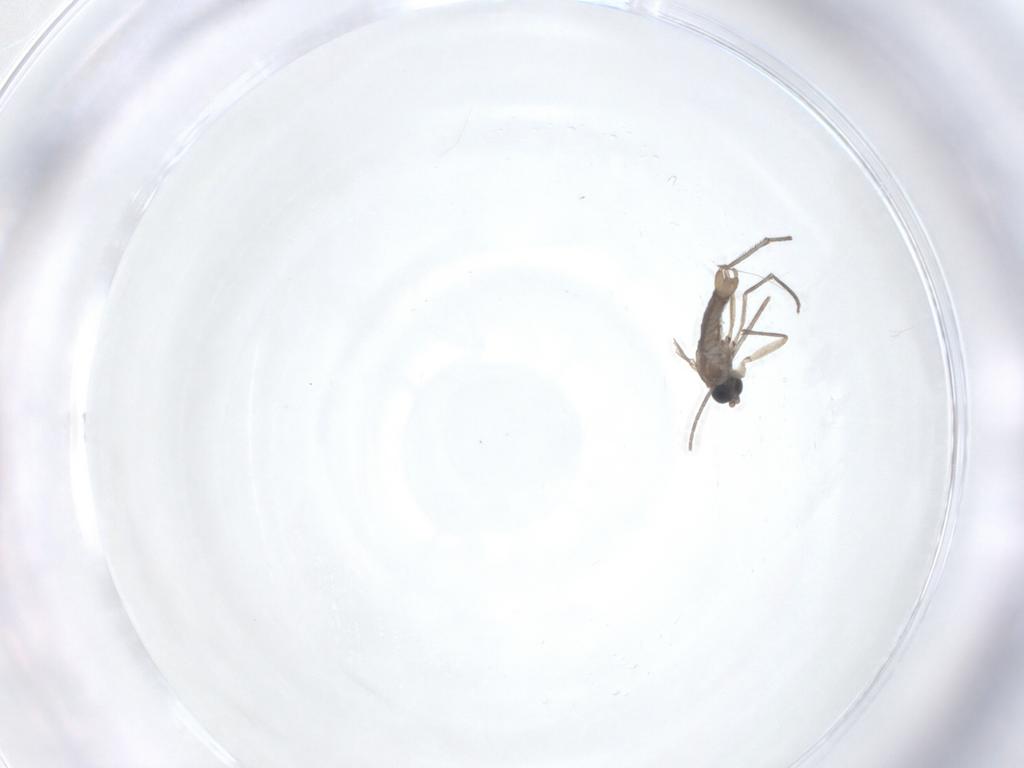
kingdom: Animalia
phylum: Arthropoda
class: Insecta
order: Diptera
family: Sciaridae
